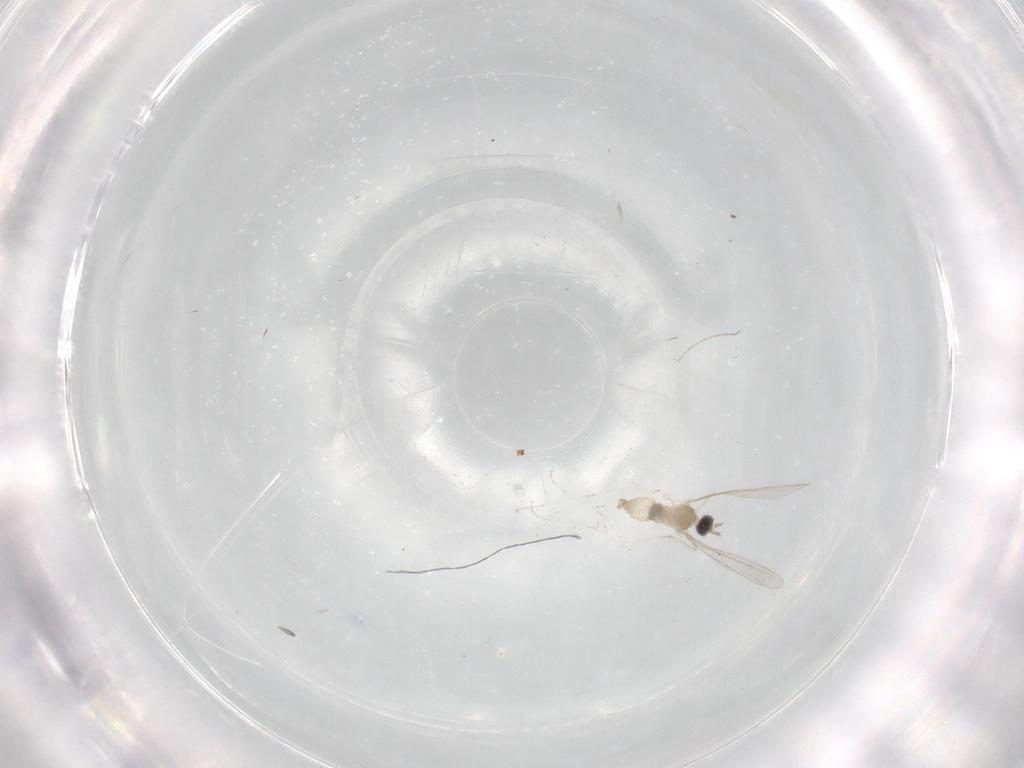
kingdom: Animalia
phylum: Arthropoda
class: Insecta
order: Diptera
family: Cecidomyiidae
